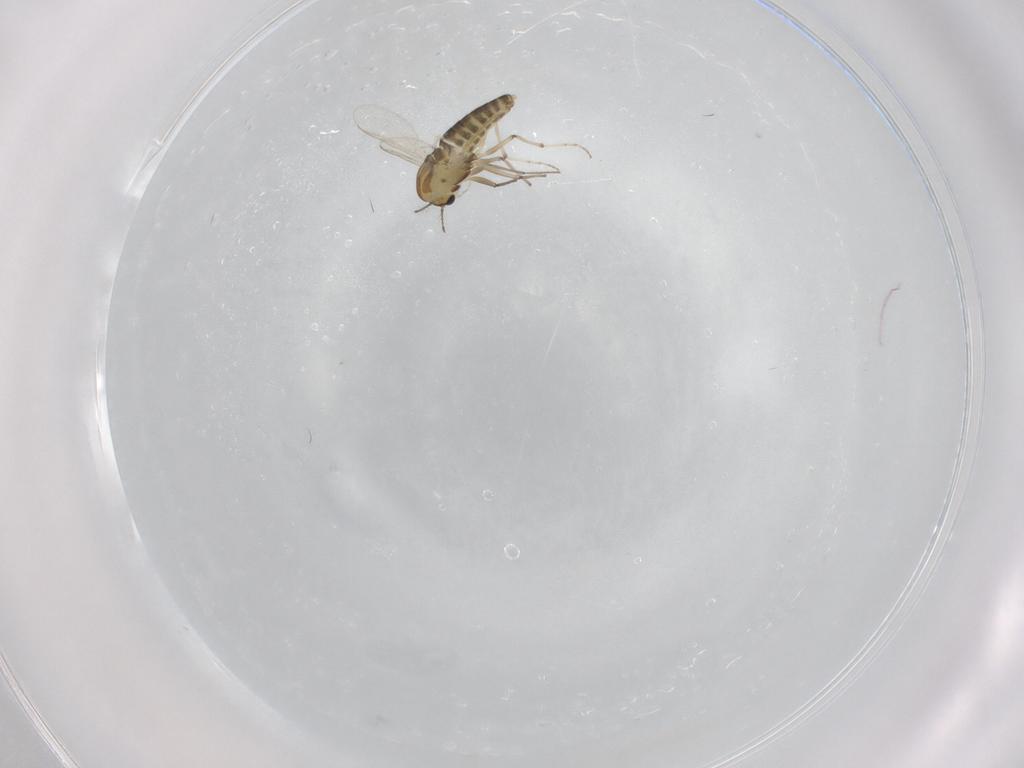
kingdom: Animalia
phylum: Arthropoda
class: Insecta
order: Diptera
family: Chironomidae
